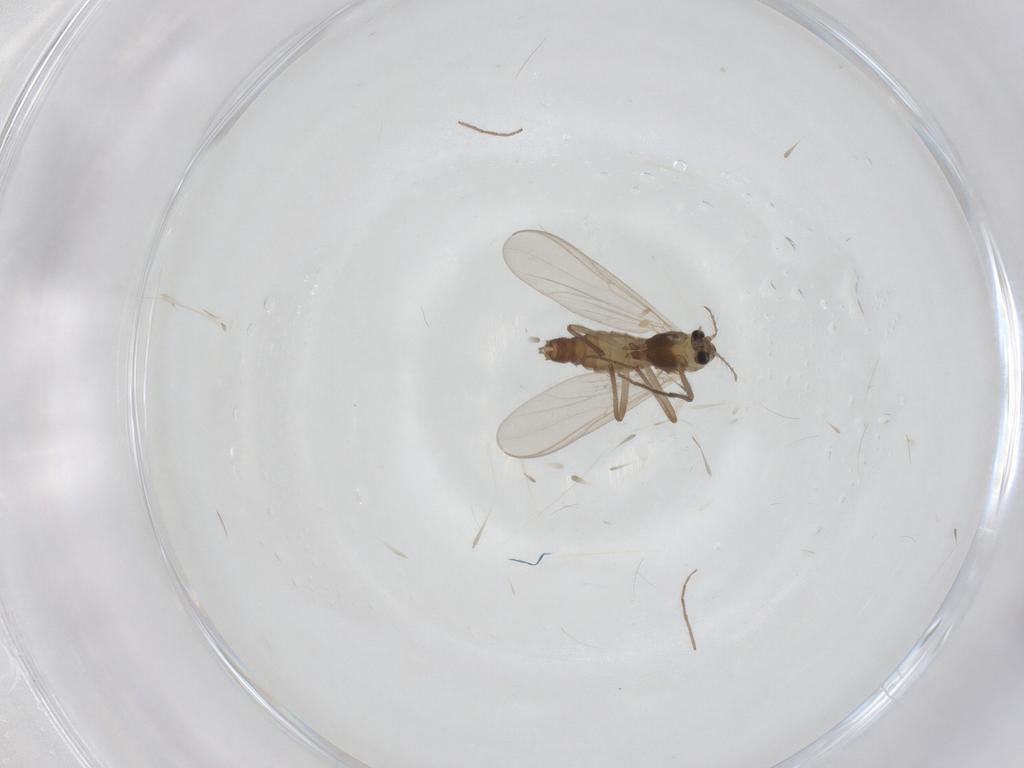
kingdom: Animalia
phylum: Arthropoda
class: Insecta
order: Diptera
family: Chironomidae
